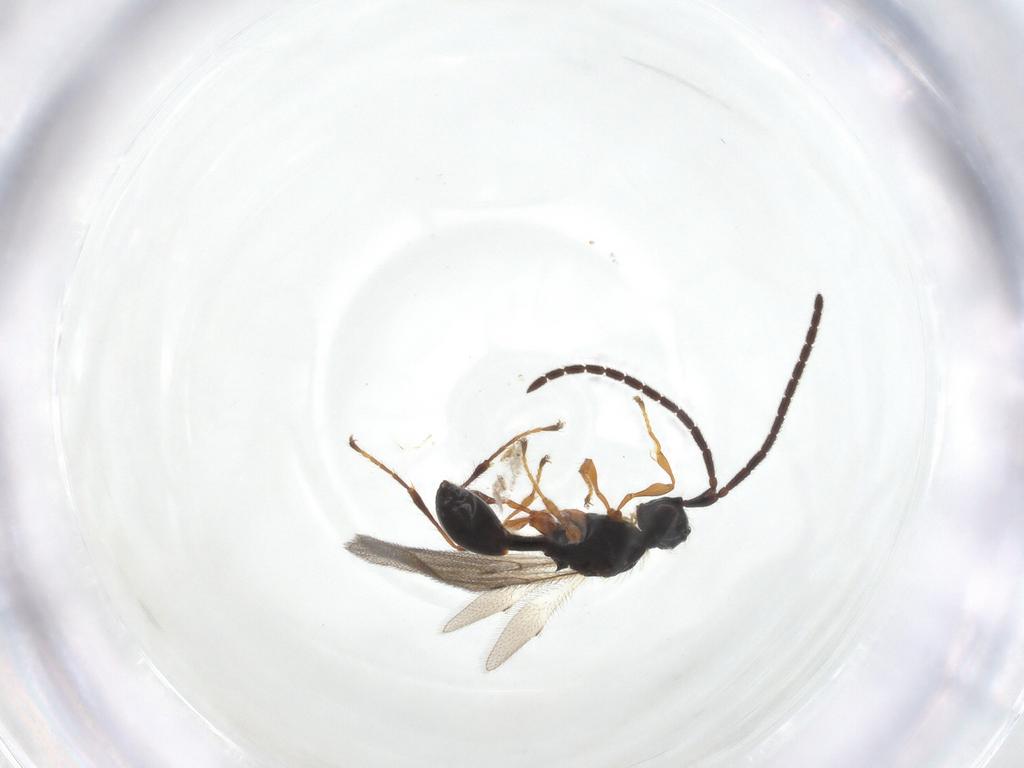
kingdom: Animalia
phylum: Arthropoda
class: Insecta
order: Hymenoptera
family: Diapriidae
